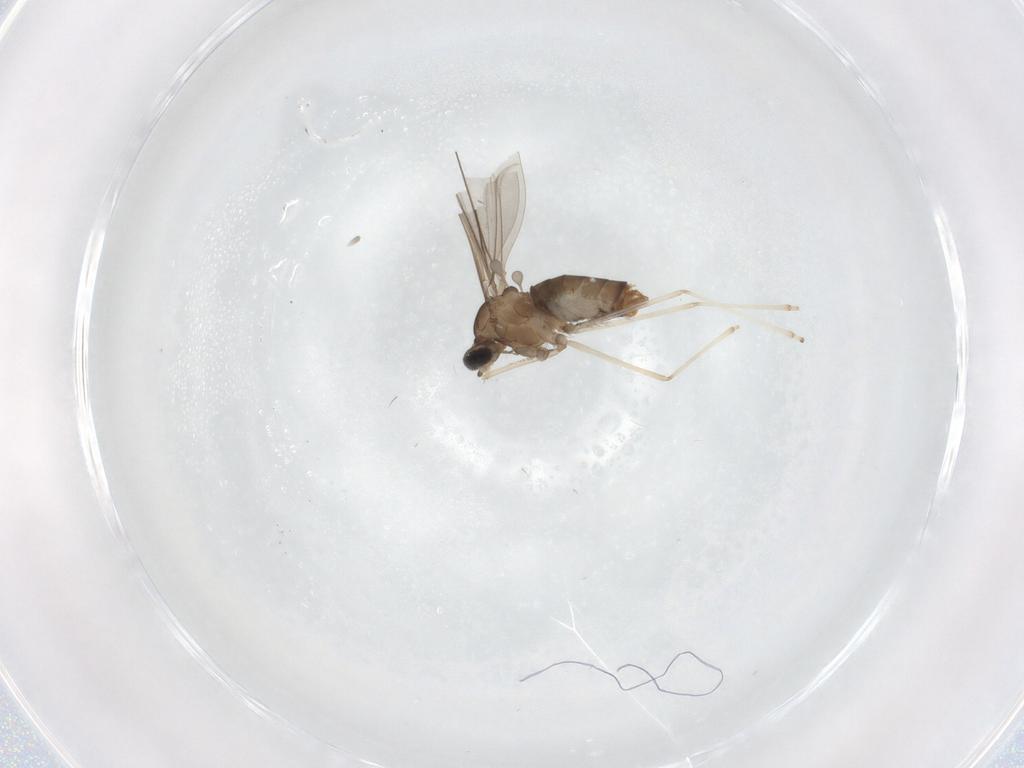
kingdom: Animalia
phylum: Arthropoda
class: Insecta
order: Diptera
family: Cecidomyiidae
